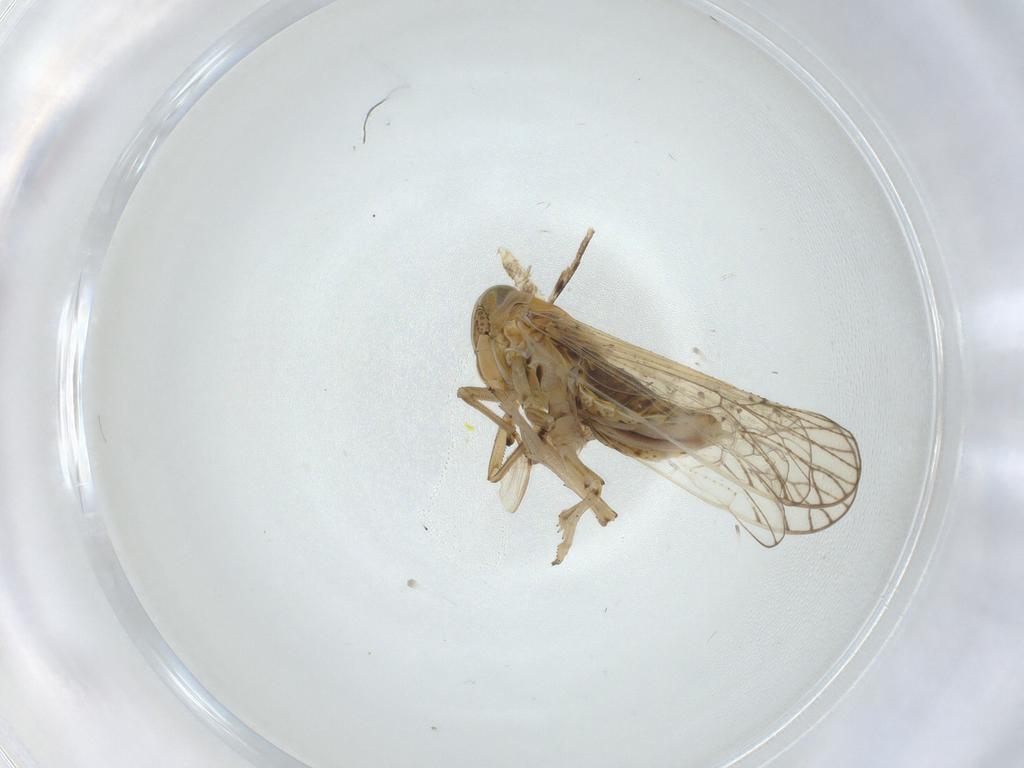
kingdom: Animalia
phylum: Arthropoda
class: Insecta
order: Hemiptera
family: Delphacidae
